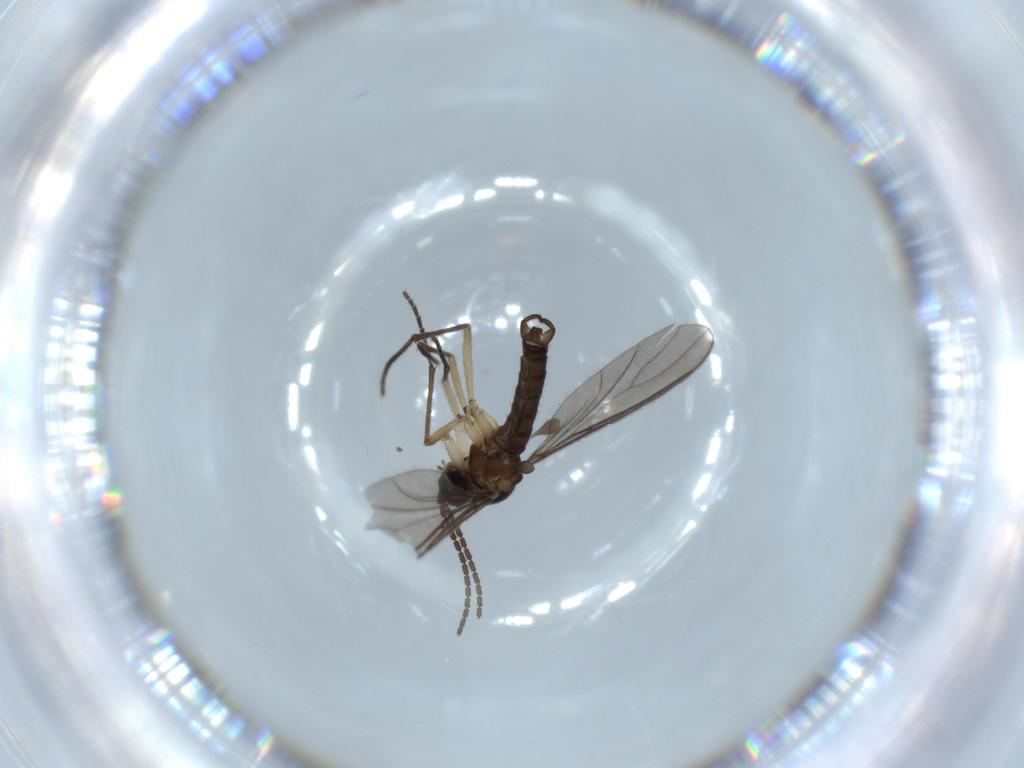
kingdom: Animalia
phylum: Arthropoda
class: Insecta
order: Diptera
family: Sciaridae
